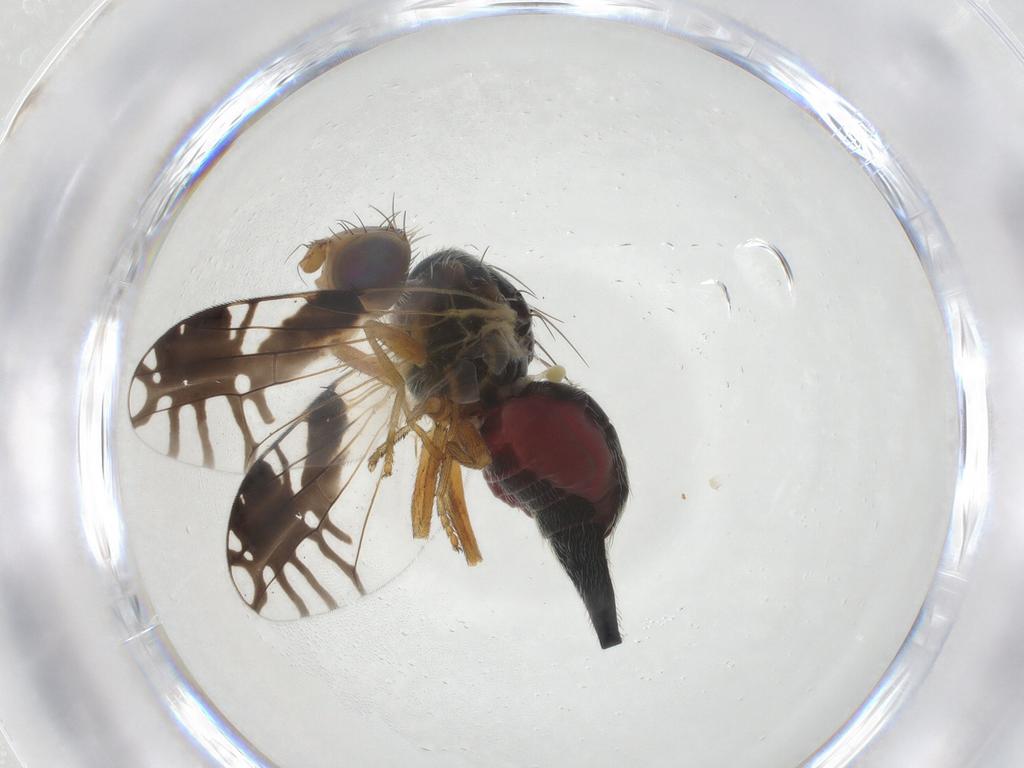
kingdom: Animalia
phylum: Arthropoda
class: Insecta
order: Diptera
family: Tephritidae
